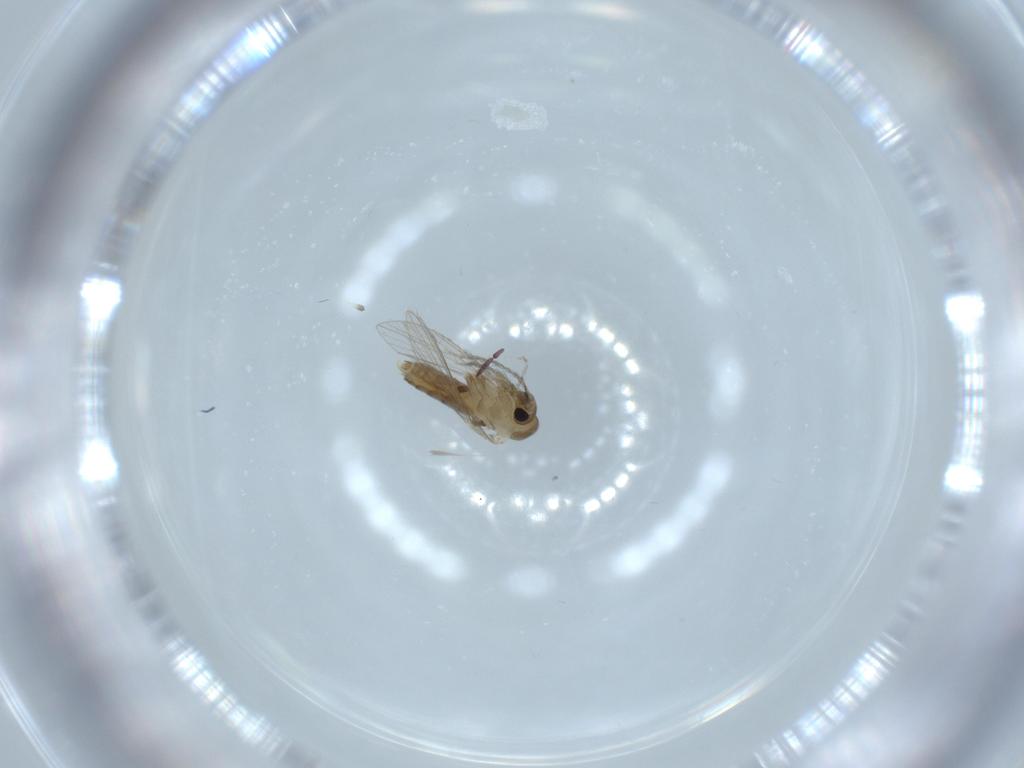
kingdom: Animalia
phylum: Arthropoda
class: Insecta
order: Diptera
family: Psychodidae
